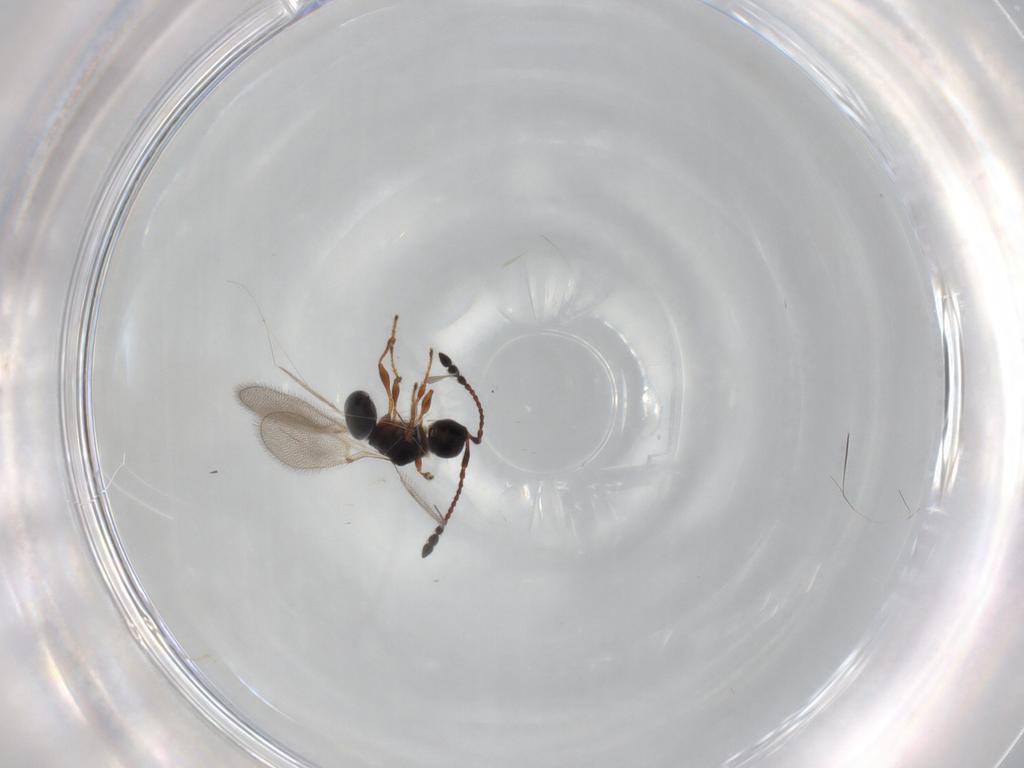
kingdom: Animalia
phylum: Arthropoda
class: Insecta
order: Hymenoptera
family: Diapriidae
